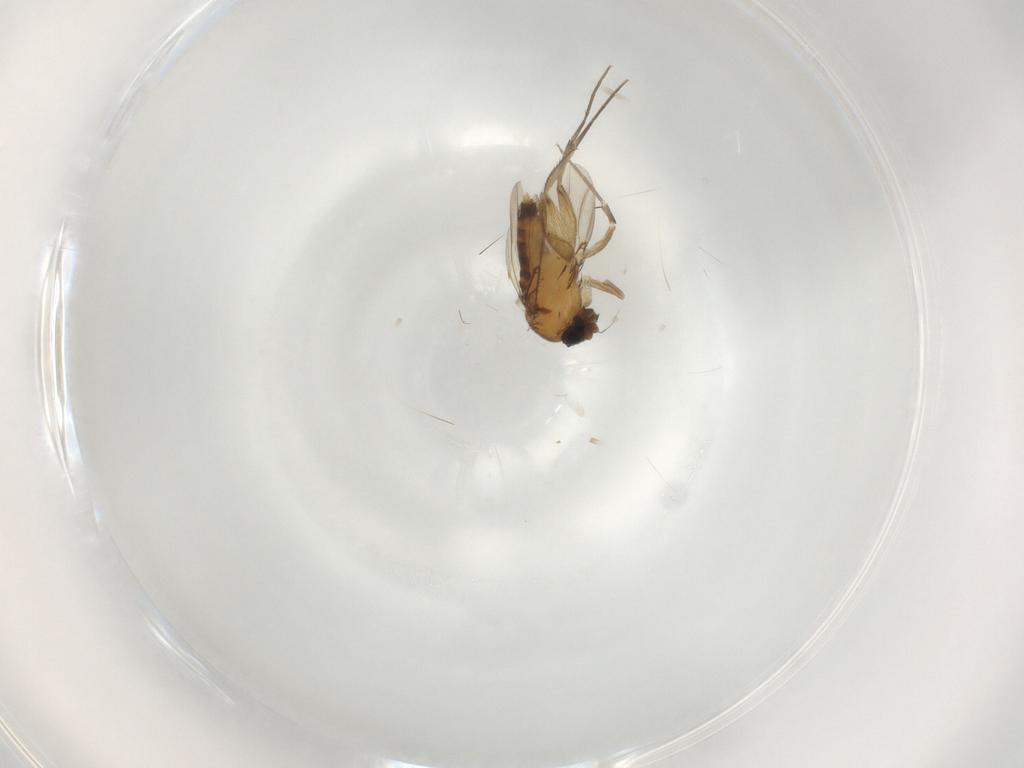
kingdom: Animalia
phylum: Arthropoda
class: Insecta
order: Diptera
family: Phoridae
